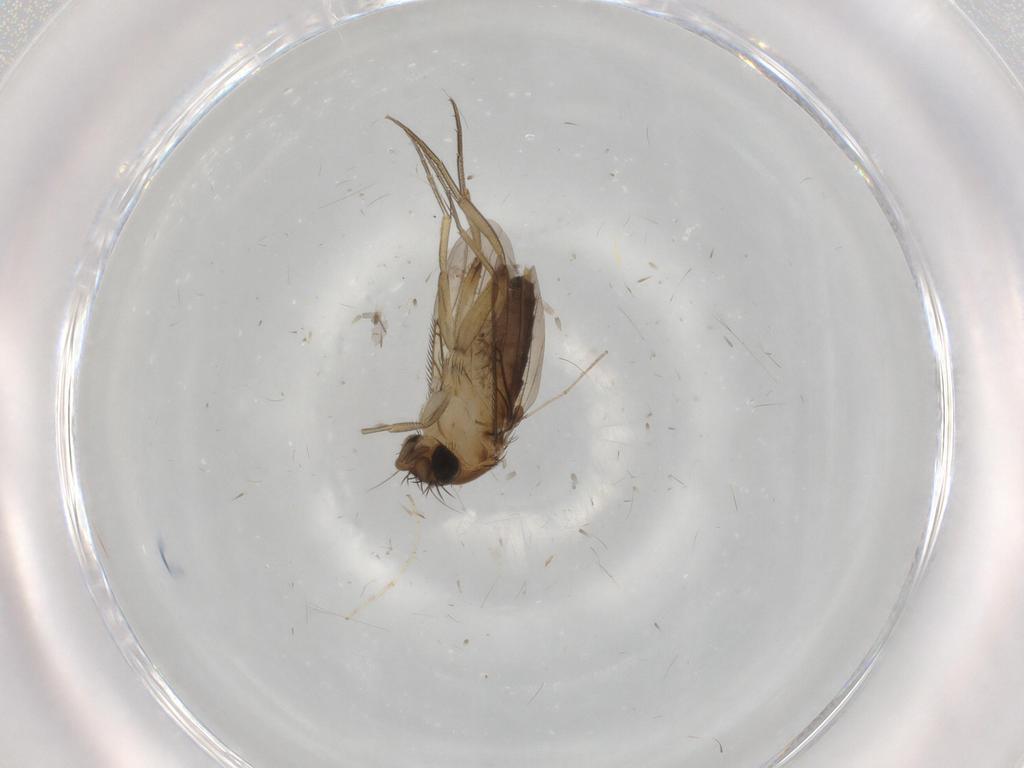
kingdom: Animalia
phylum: Arthropoda
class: Insecta
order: Diptera
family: Phoridae
